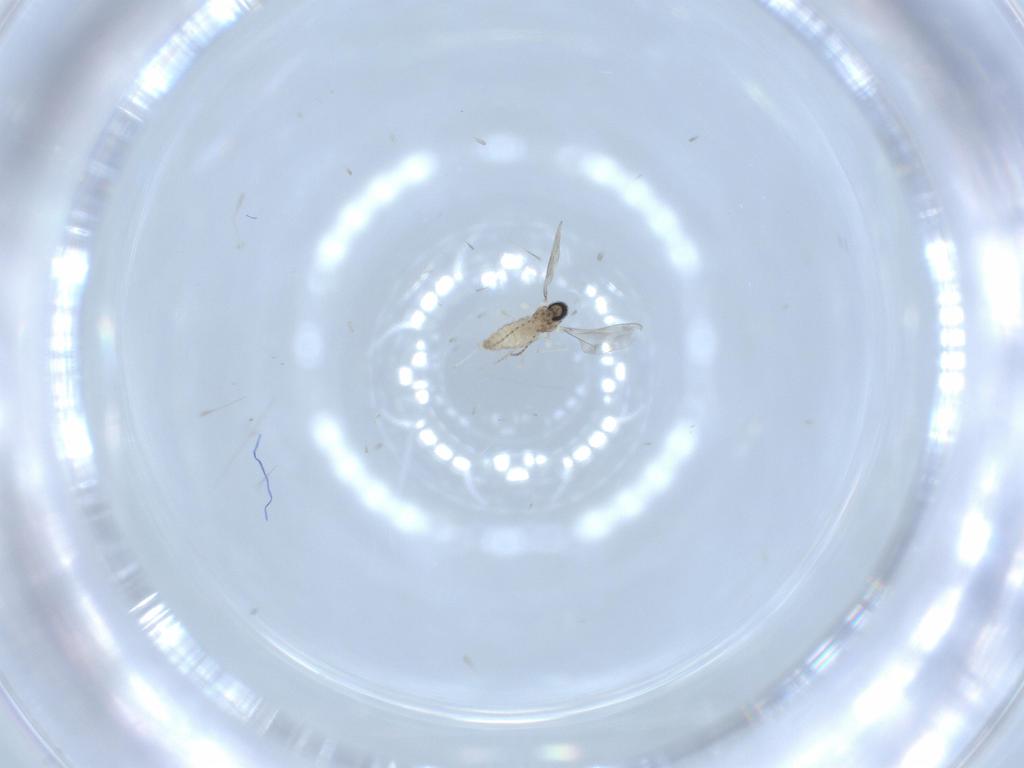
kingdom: Animalia
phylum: Arthropoda
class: Insecta
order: Diptera
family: Cecidomyiidae
